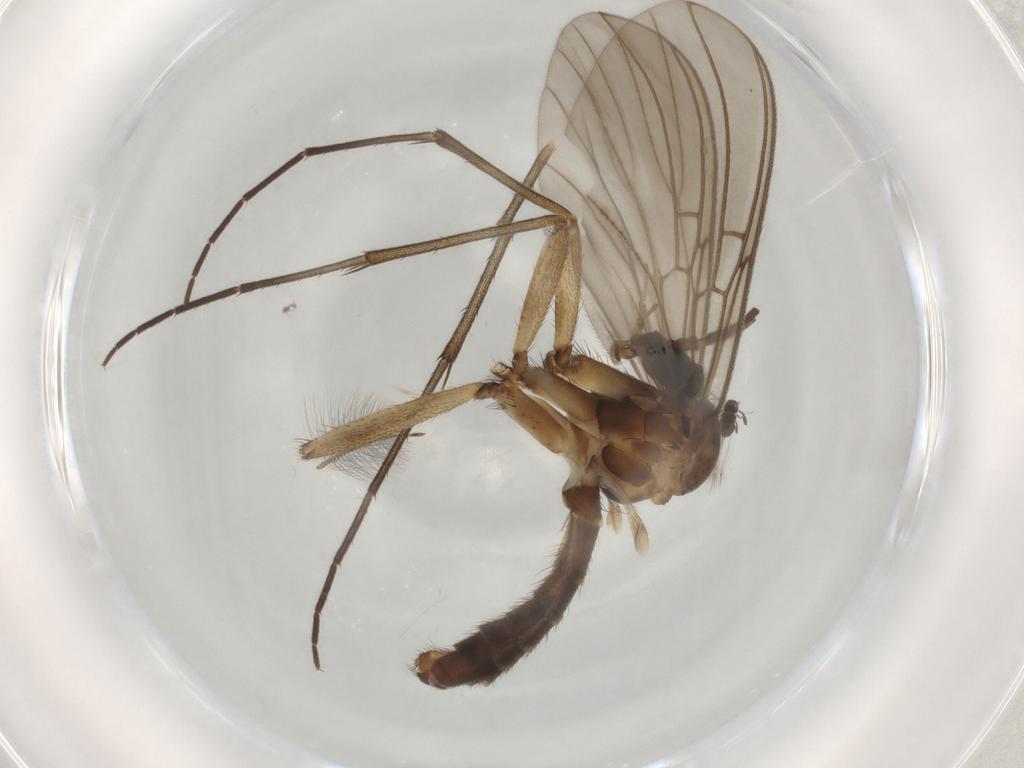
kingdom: Animalia
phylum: Arthropoda
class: Insecta
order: Diptera
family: Mycetophilidae
